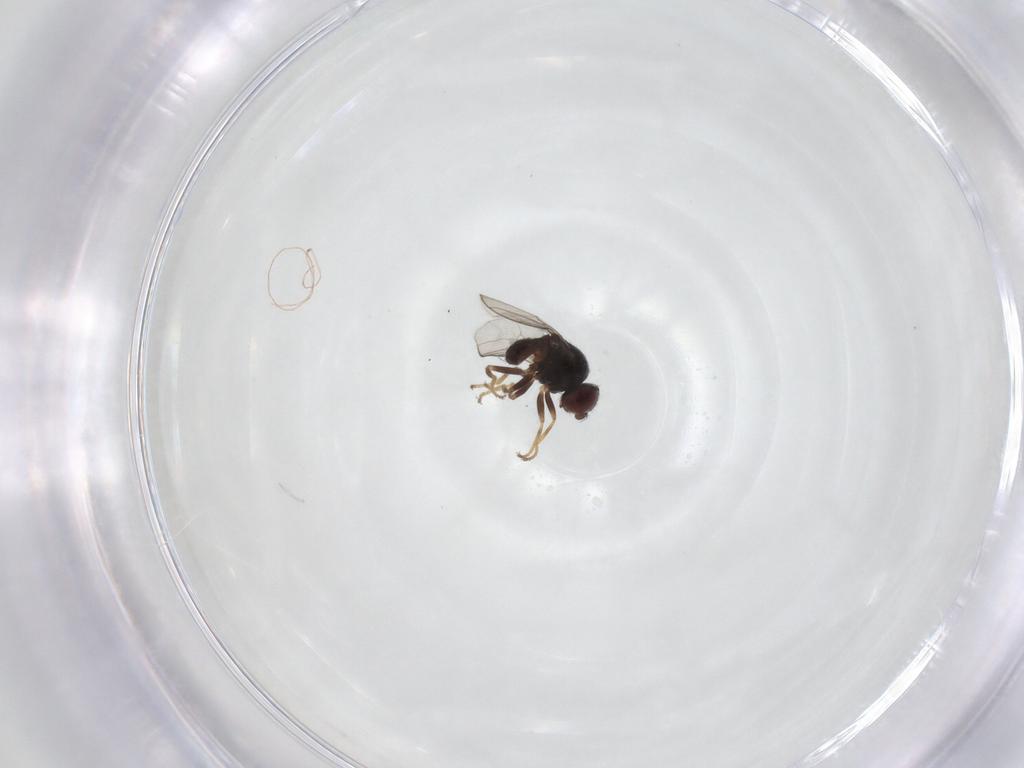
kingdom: Animalia
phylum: Arthropoda
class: Insecta
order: Diptera
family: Chloropidae
